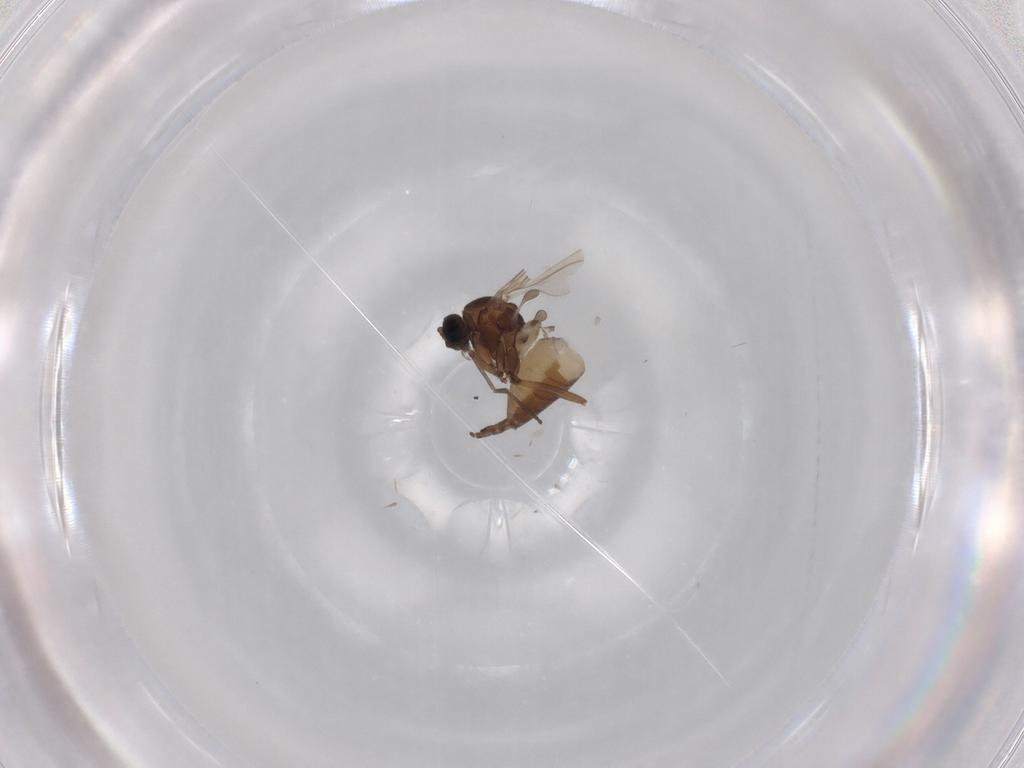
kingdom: Animalia
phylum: Arthropoda
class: Insecta
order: Diptera
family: Sciaridae
